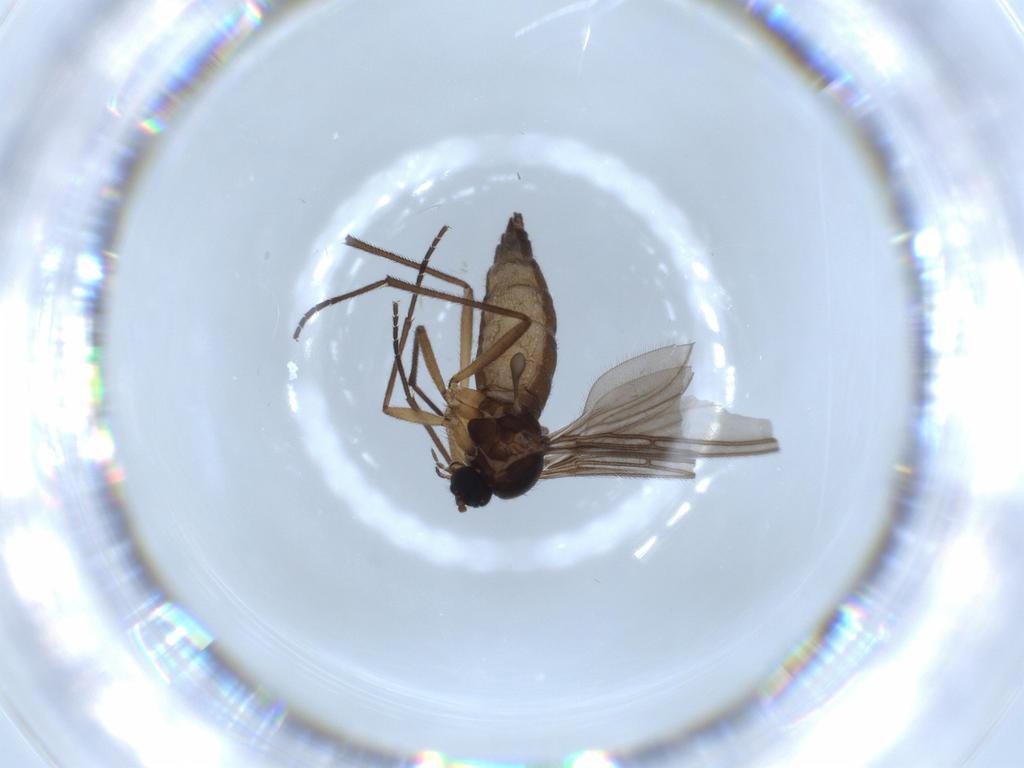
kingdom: Animalia
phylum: Arthropoda
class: Insecta
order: Diptera
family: Sciaridae
